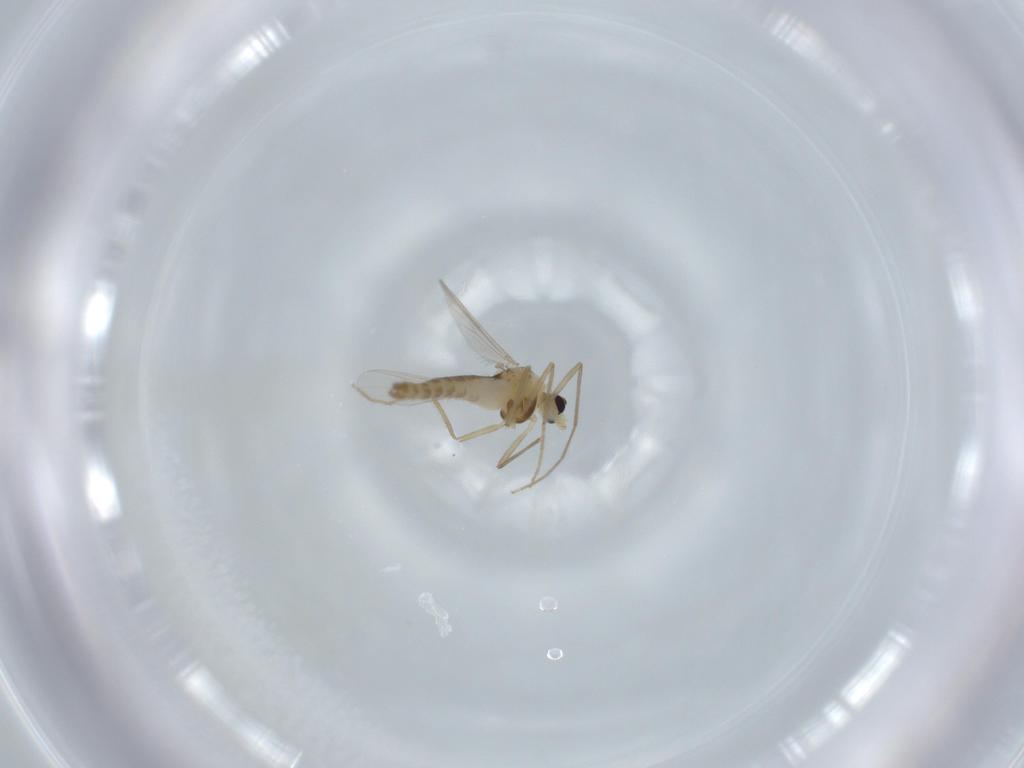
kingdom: Animalia
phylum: Arthropoda
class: Insecta
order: Diptera
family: Chironomidae
